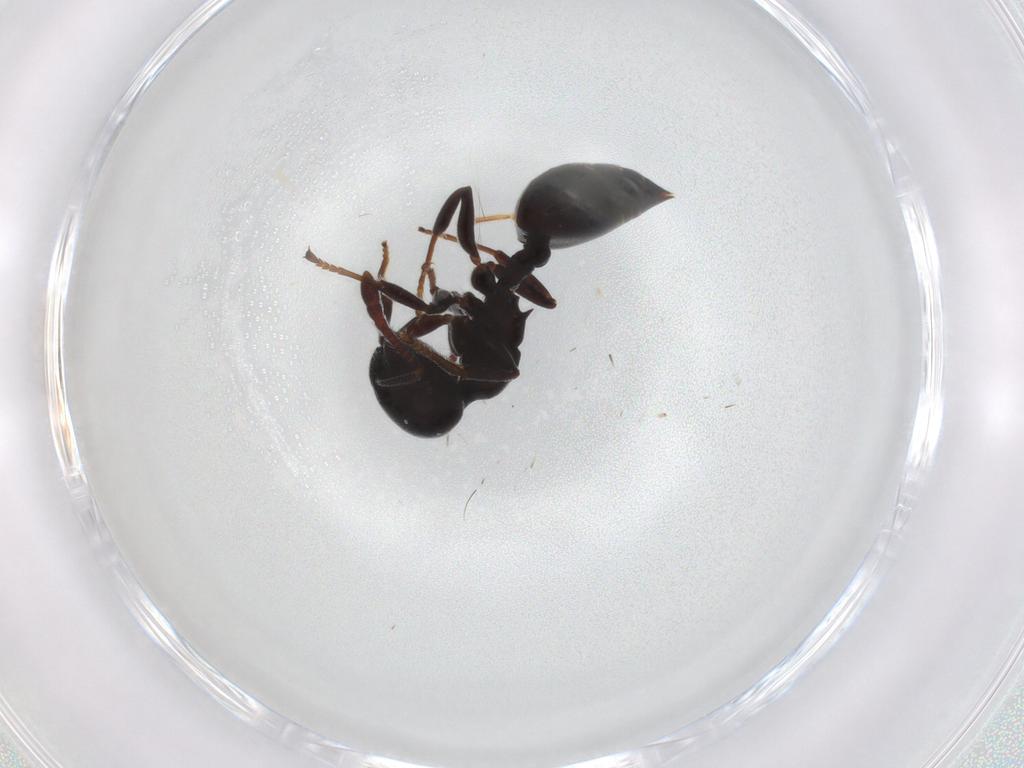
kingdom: Animalia
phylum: Arthropoda
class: Insecta
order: Hymenoptera
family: Formicidae
